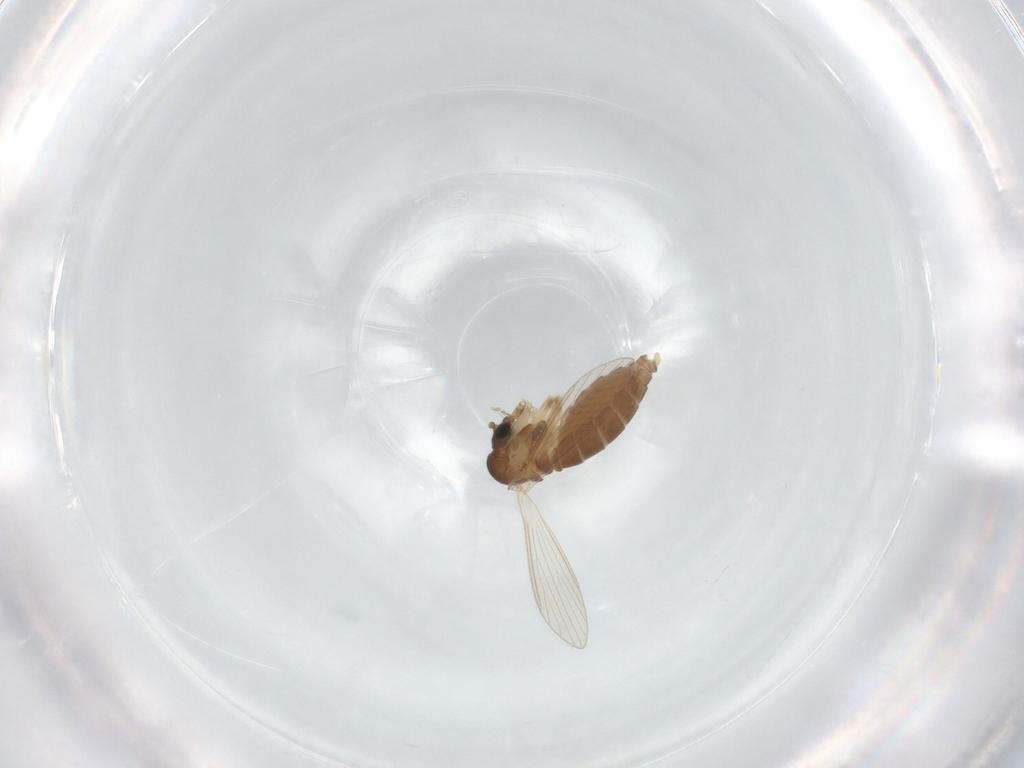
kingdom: Animalia
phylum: Arthropoda
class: Insecta
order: Diptera
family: Psychodidae
